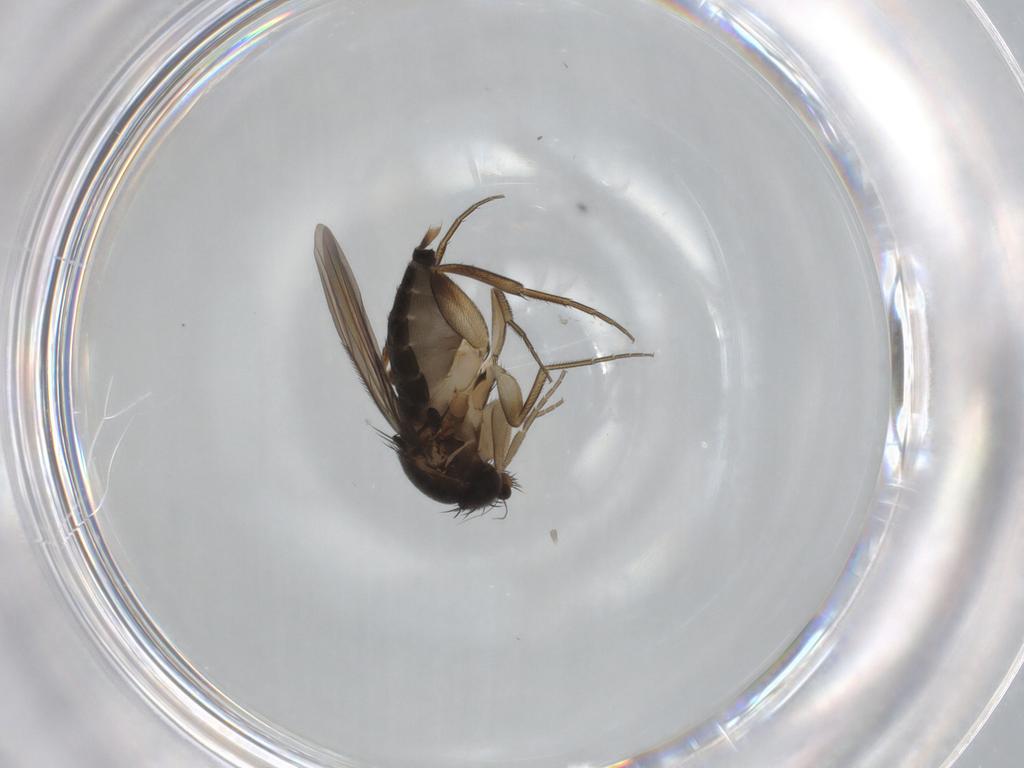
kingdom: Animalia
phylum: Arthropoda
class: Insecta
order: Diptera
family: Phoridae
